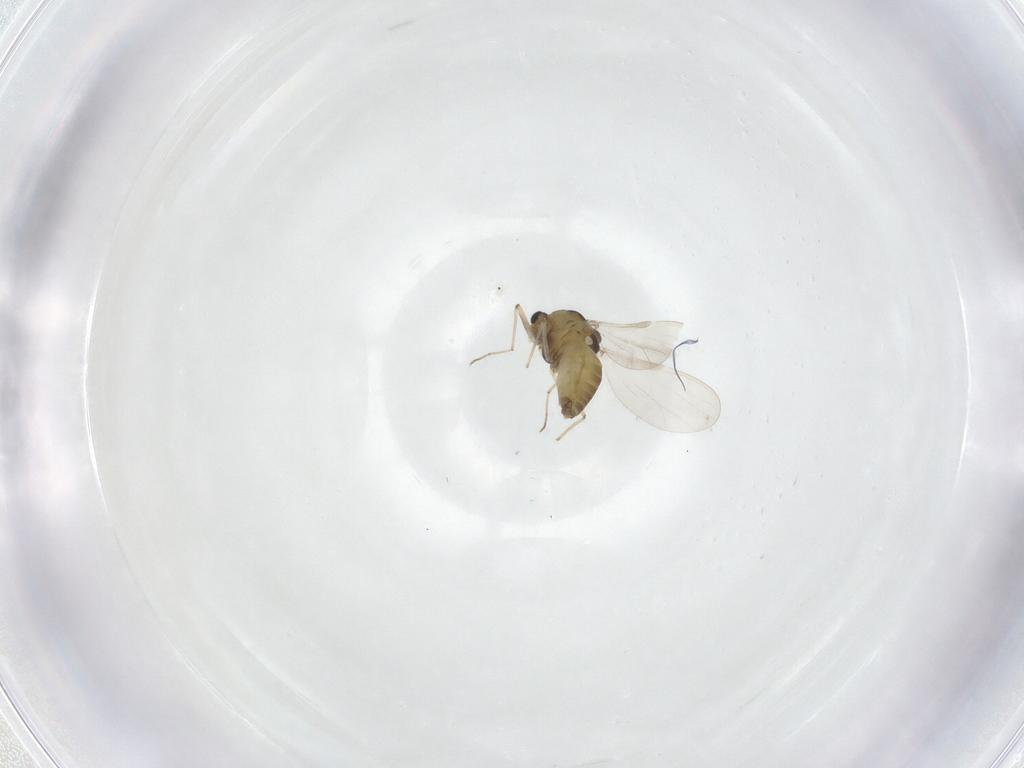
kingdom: Animalia
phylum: Arthropoda
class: Insecta
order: Diptera
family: Chironomidae
